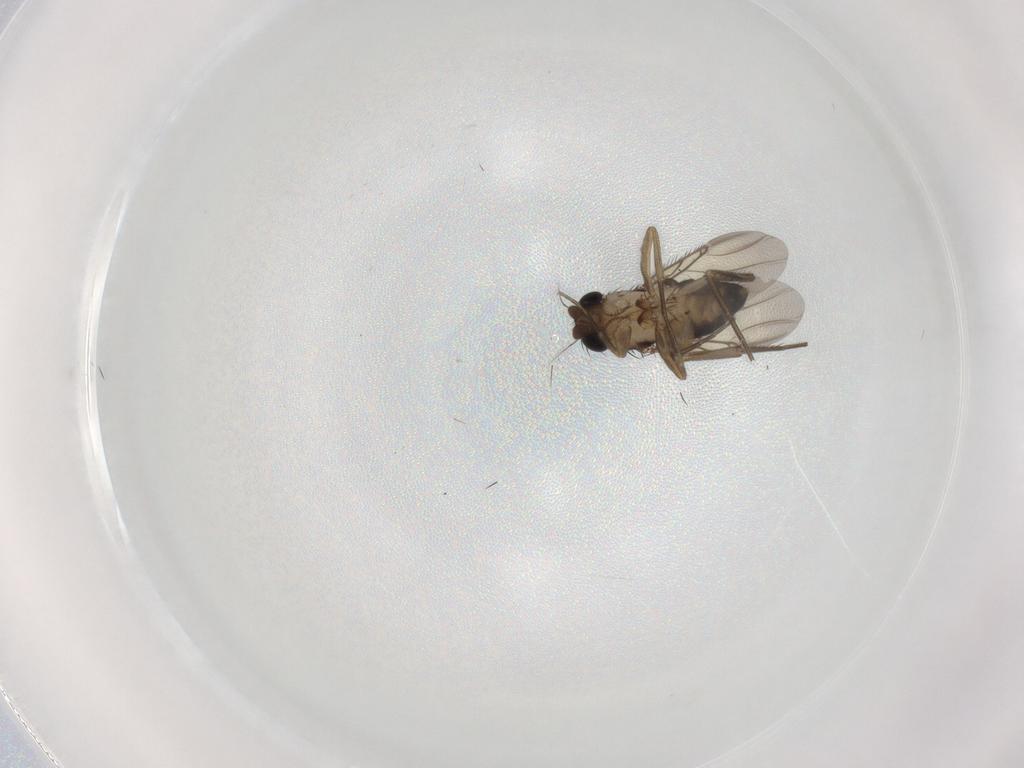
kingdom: Animalia
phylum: Arthropoda
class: Insecta
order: Diptera
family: Phoridae
